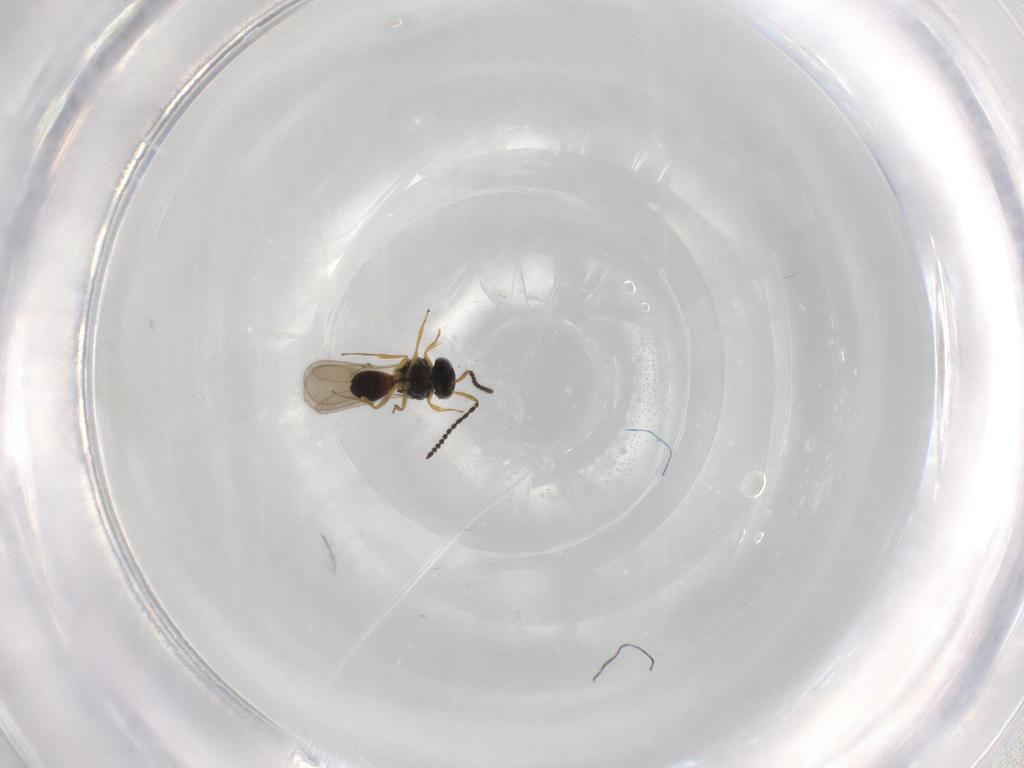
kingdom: Animalia
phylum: Arthropoda
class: Insecta
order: Hymenoptera
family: Scelionidae
